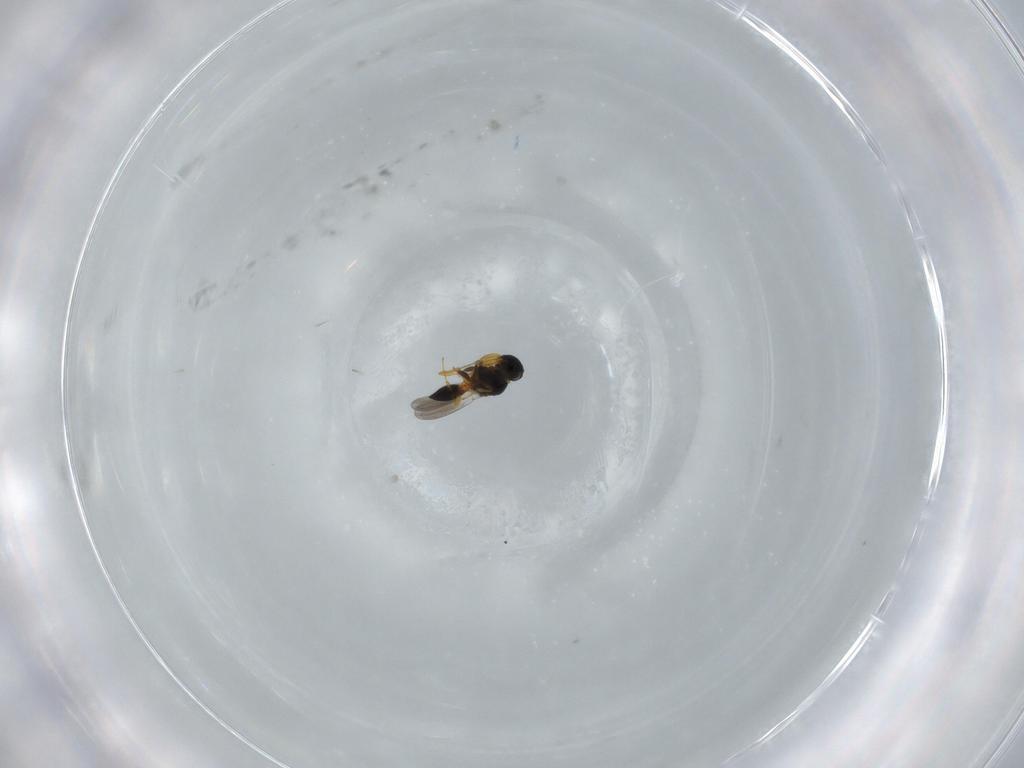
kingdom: Animalia
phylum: Arthropoda
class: Insecta
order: Hymenoptera
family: Platygastridae
